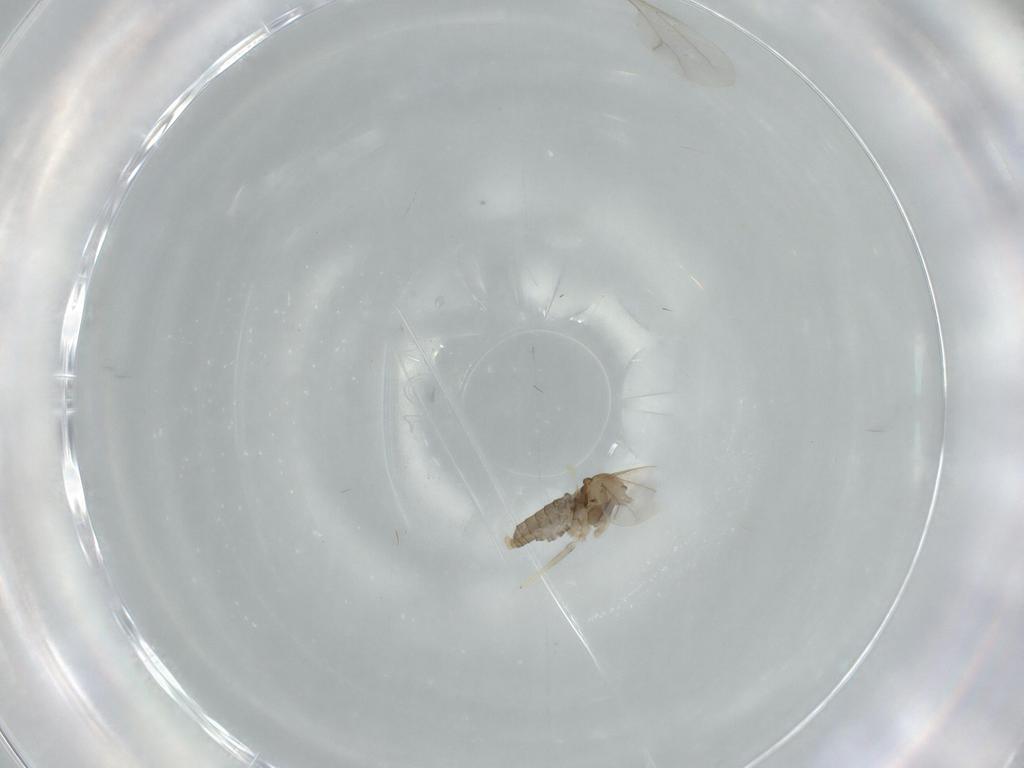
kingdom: Animalia
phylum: Arthropoda
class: Insecta
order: Diptera
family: Cecidomyiidae
